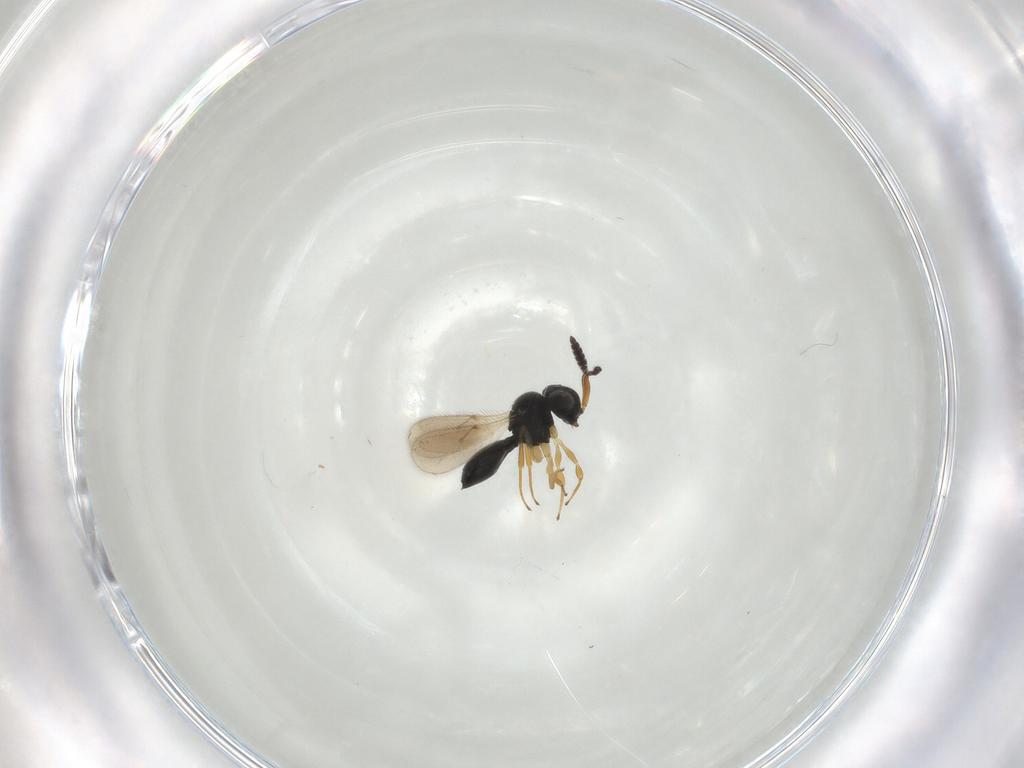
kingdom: Animalia
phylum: Arthropoda
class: Insecta
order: Hymenoptera
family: Scelionidae
